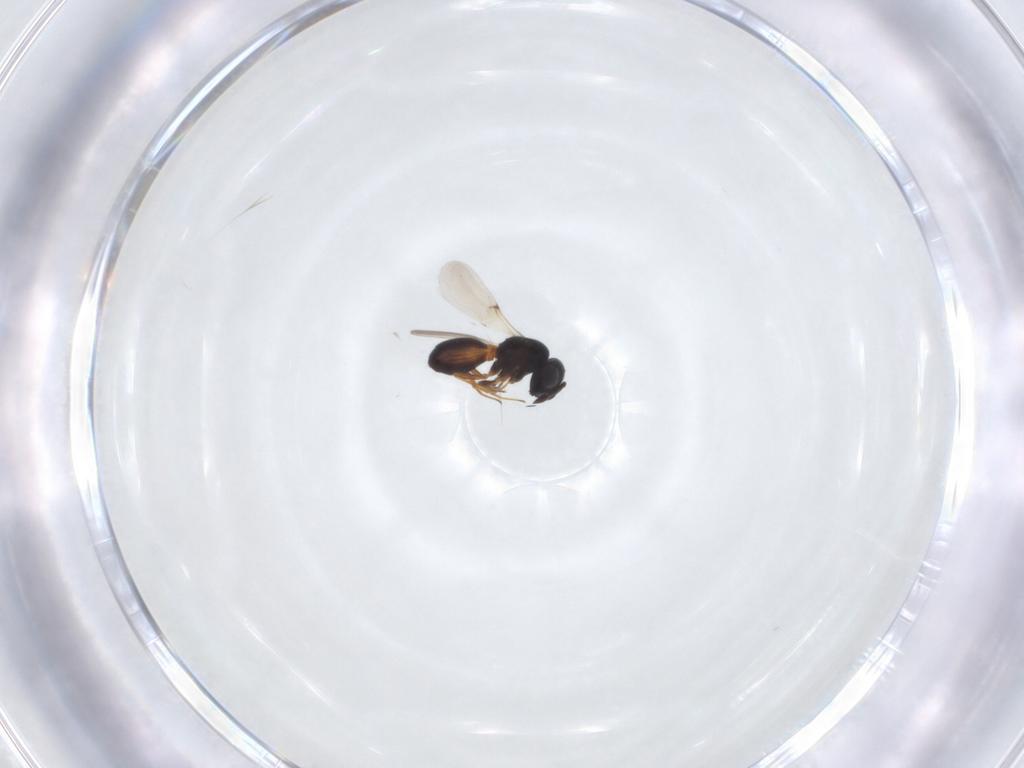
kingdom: Animalia
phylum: Arthropoda
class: Insecta
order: Hymenoptera
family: Scelionidae
